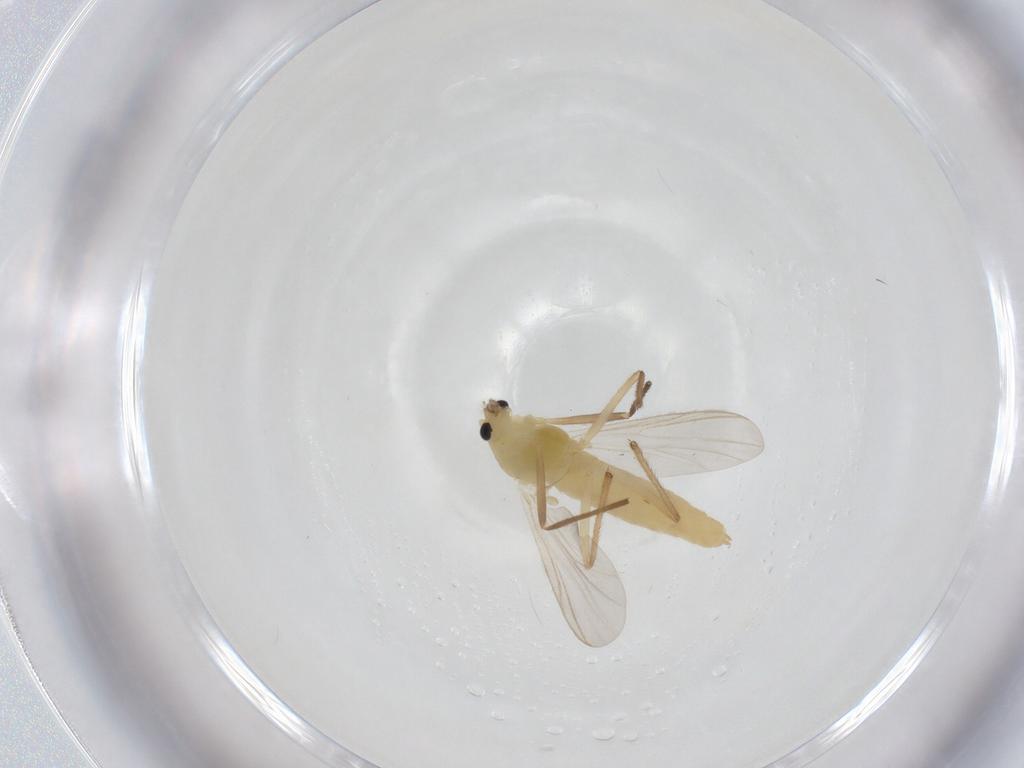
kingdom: Animalia
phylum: Arthropoda
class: Insecta
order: Diptera
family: Chironomidae
